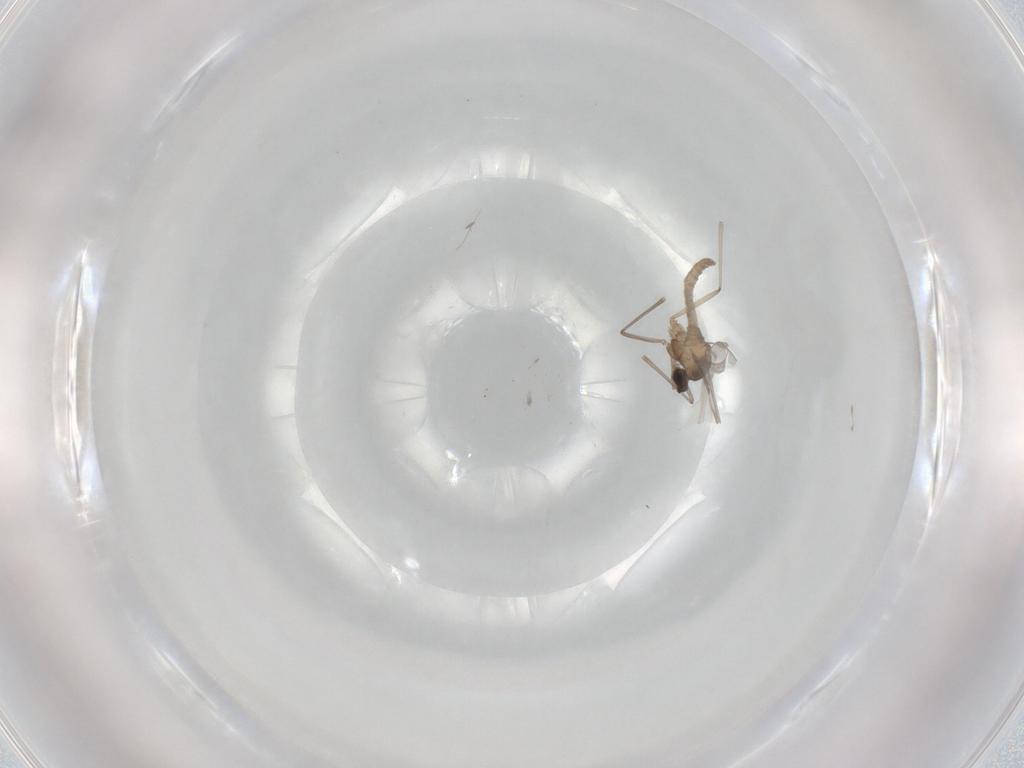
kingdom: Animalia
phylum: Arthropoda
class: Insecta
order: Diptera
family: Cecidomyiidae
